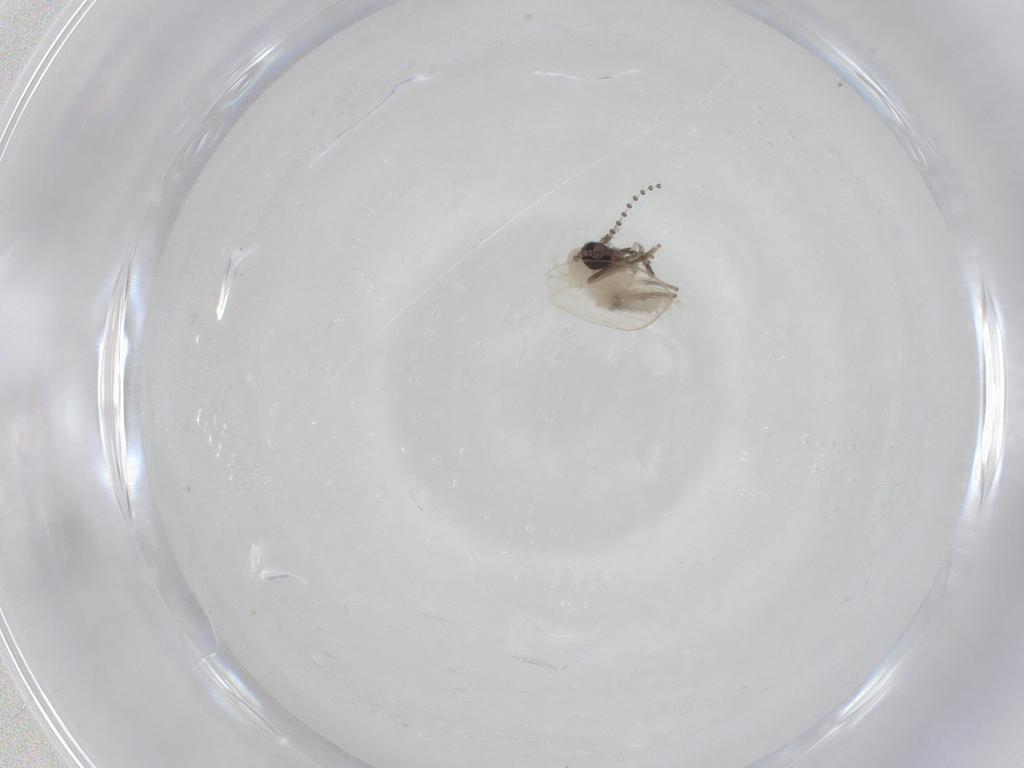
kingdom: Animalia
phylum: Arthropoda
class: Insecta
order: Diptera
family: Psychodidae
